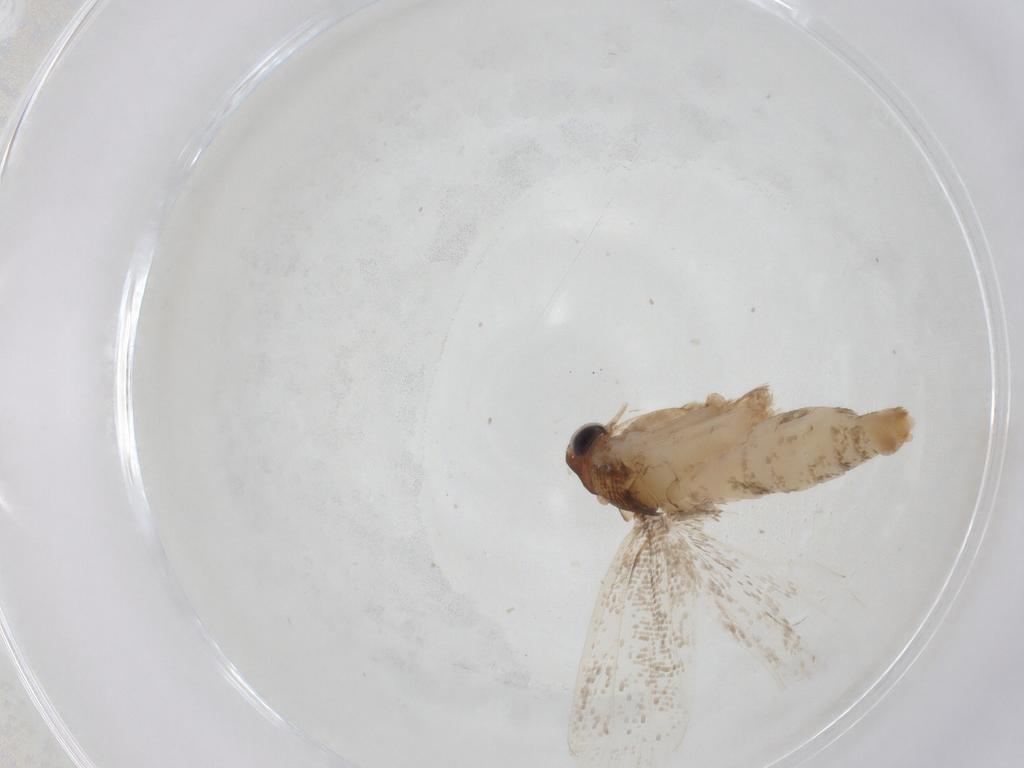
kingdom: Animalia
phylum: Arthropoda
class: Insecta
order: Lepidoptera
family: Gelechiidae
